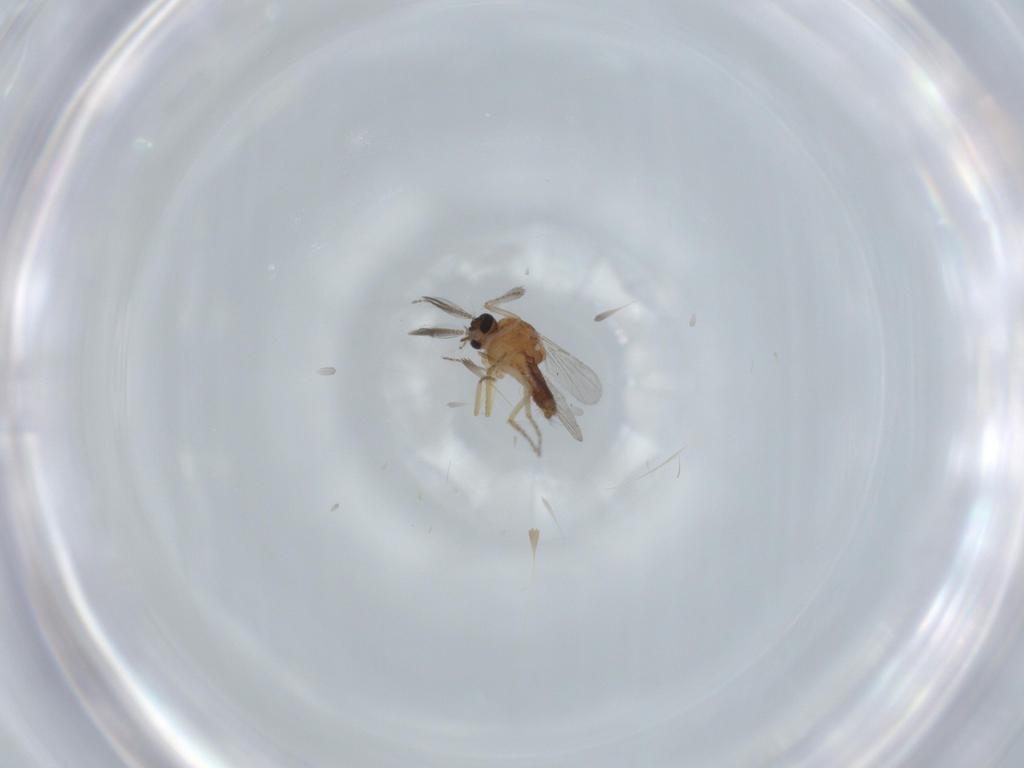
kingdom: Animalia
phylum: Arthropoda
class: Insecta
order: Diptera
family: Ceratopogonidae
